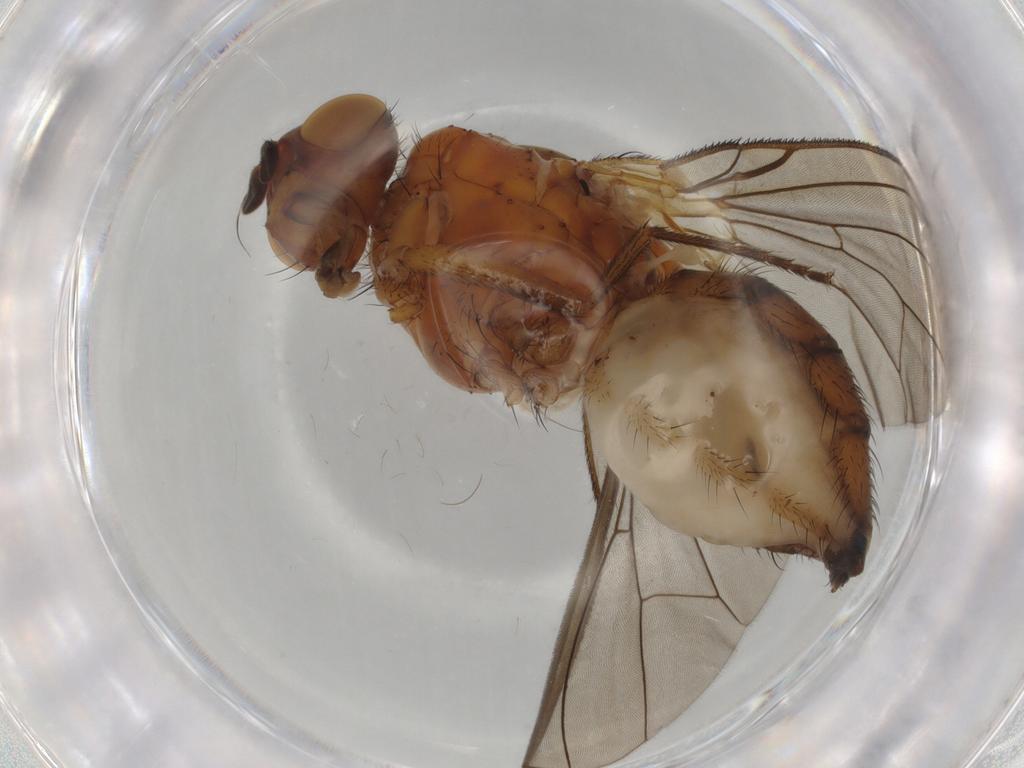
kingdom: Animalia
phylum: Arthropoda
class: Insecta
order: Diptera
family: Anthomyiidae
